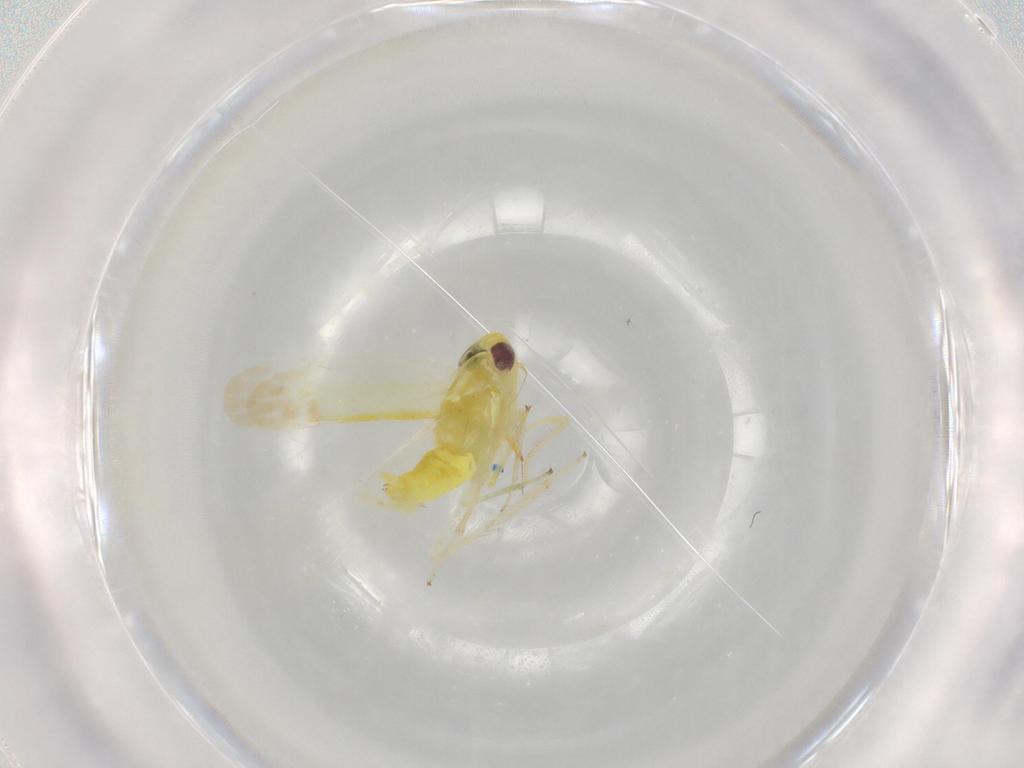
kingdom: Animalia
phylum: Arthropoda
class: Insecta
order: Hemiptera
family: Cicadellidae
